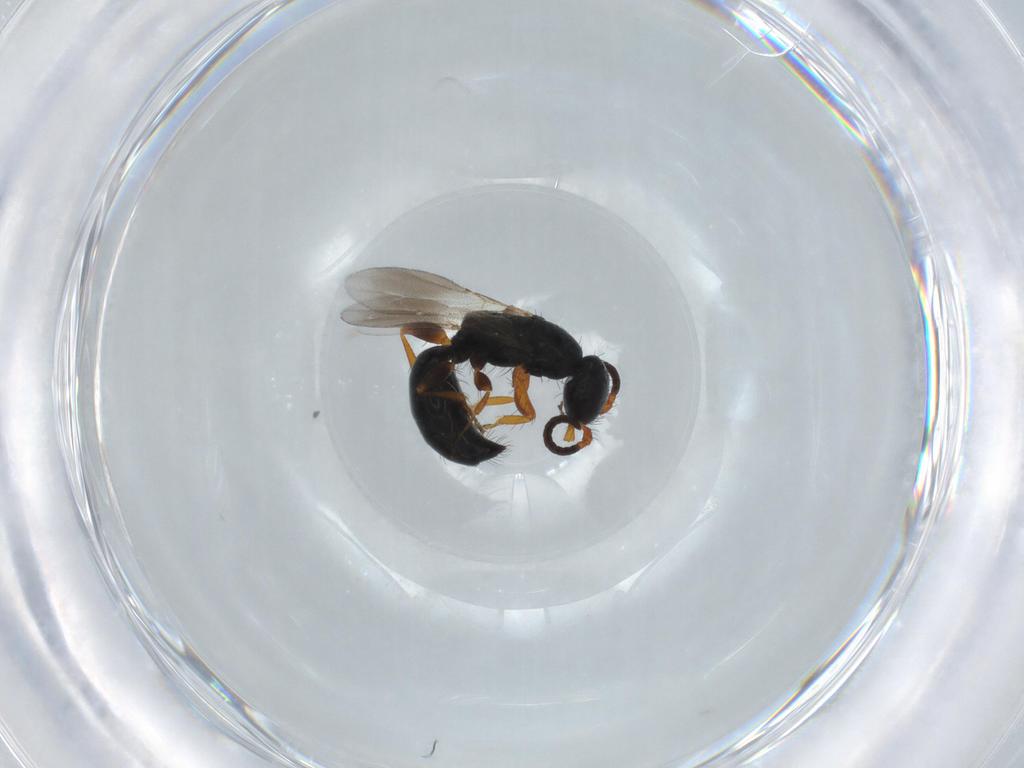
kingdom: Animalia
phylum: Arthropoda
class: Insecta
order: Hymenoptera
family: Bethylidae
